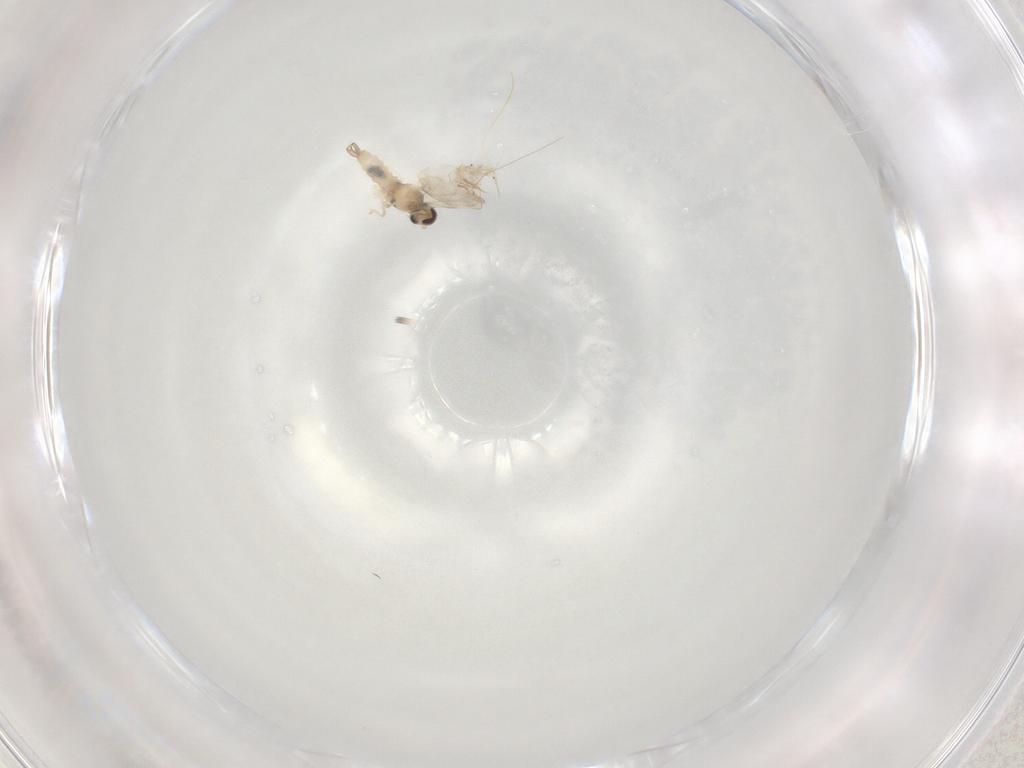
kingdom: Animalia
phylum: Arthropoda
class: Insecta
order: Diptera
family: Cecidomyiidae
